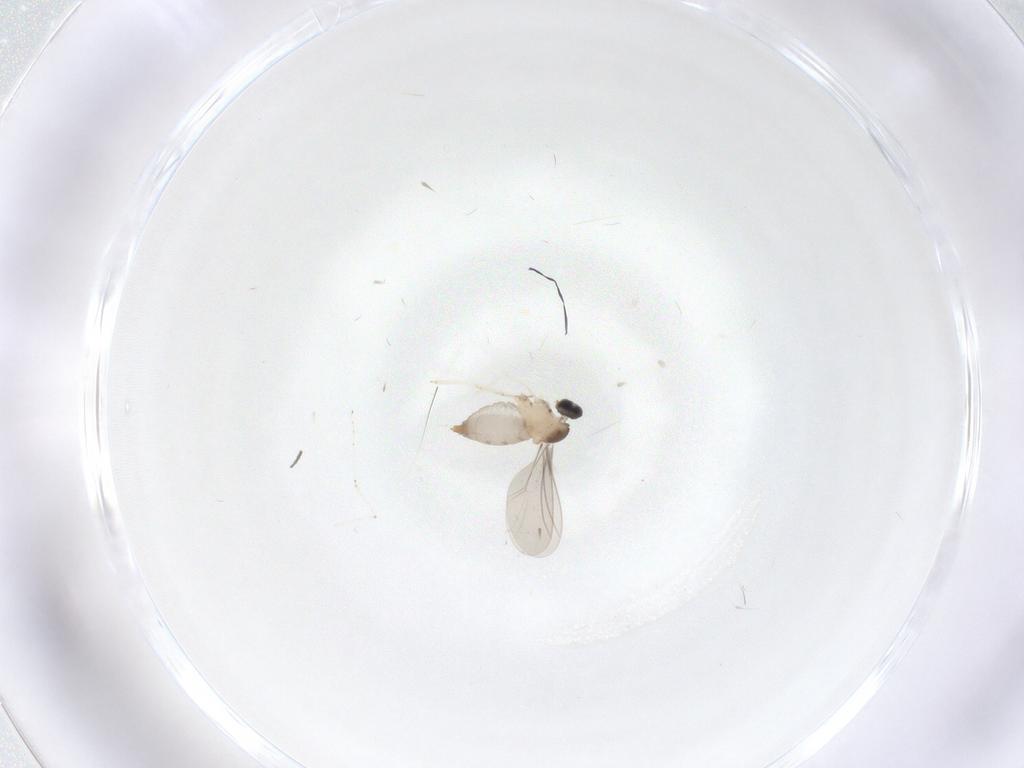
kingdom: Animalia
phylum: Arthropoda
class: Insecta
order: Diptera
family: Cecidomyiidae
